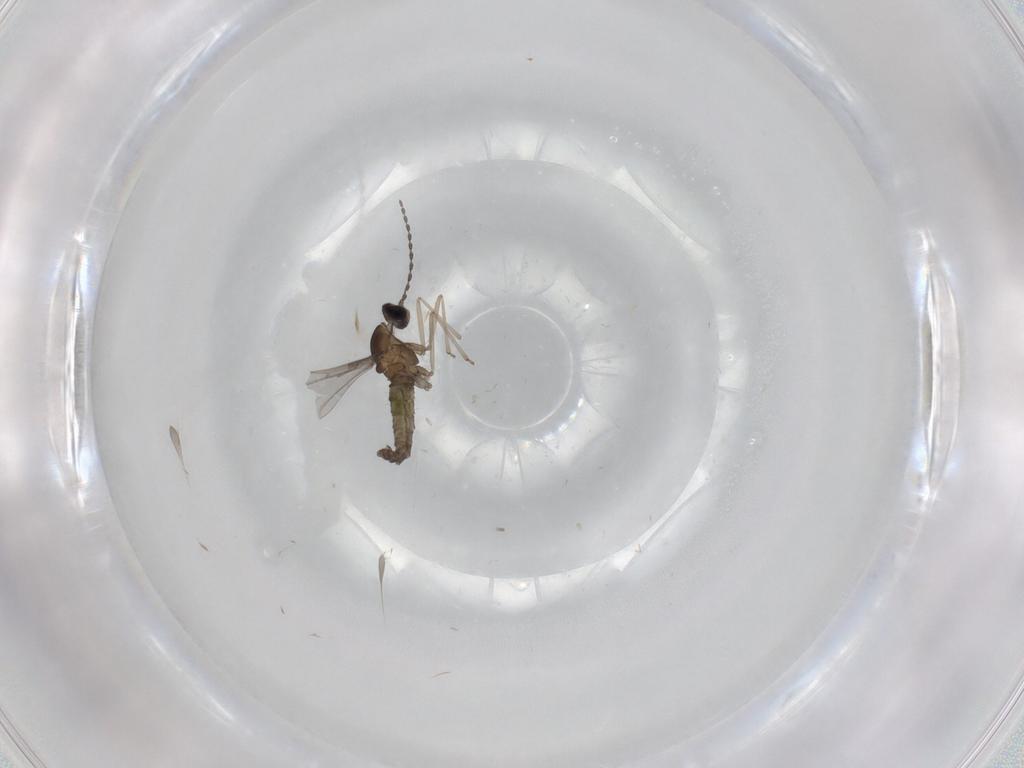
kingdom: Animalia
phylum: Arthropoda
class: Insecta
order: Diptera
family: Cecidomyiidae
